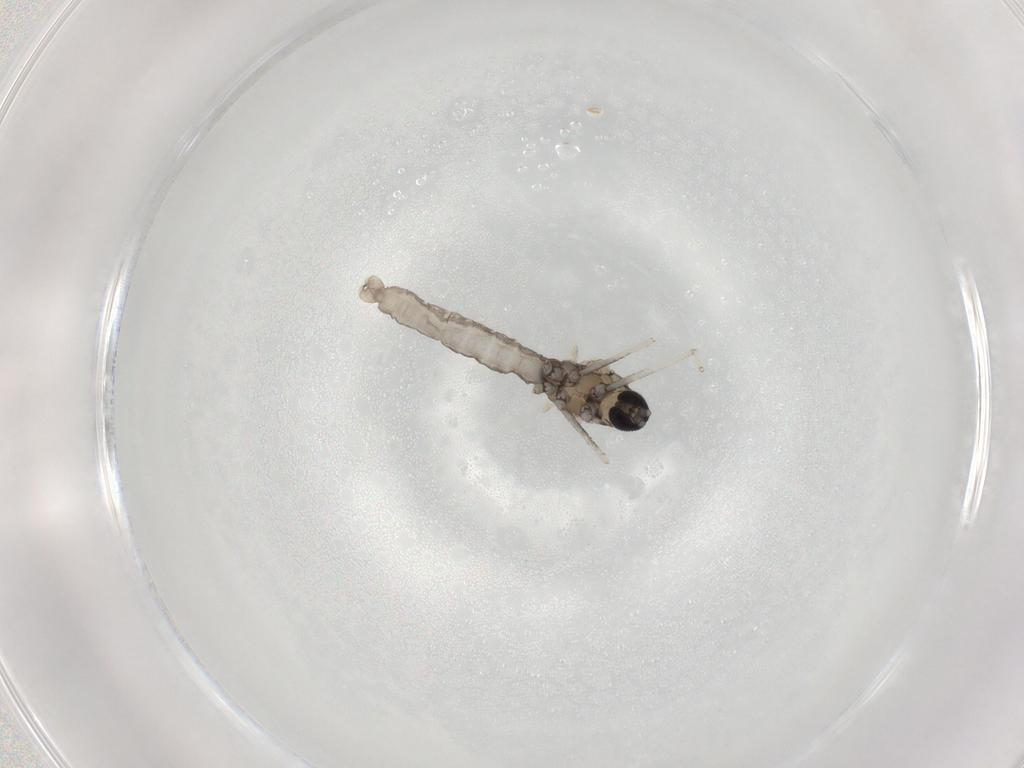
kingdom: Animalia
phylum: Arthropoda
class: Insecta
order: Diptera
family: Cecidomyiidae
